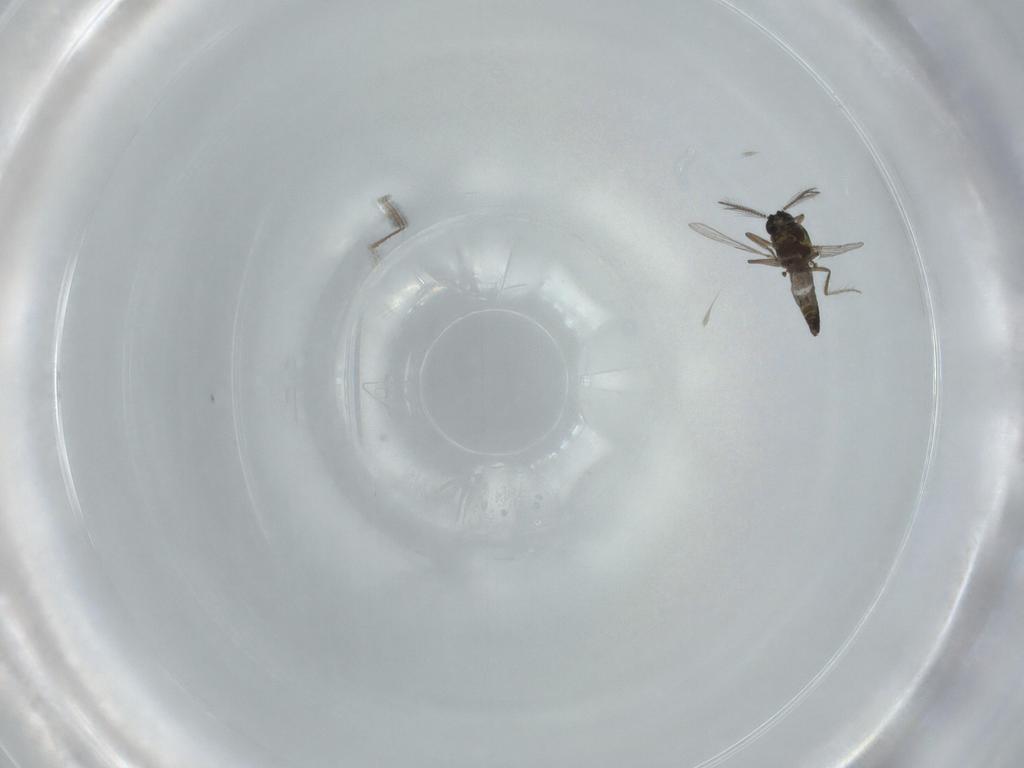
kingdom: Animalia
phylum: Arthropoda
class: Insecta
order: Diptera
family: Ceratopogonidae
